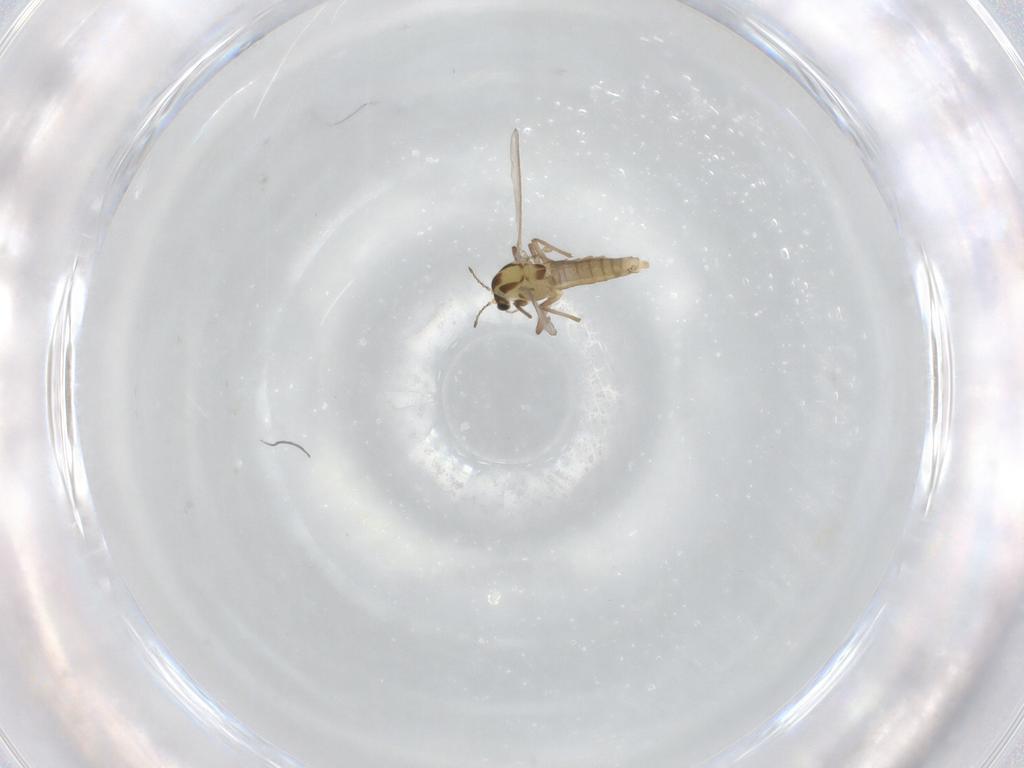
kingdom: Animalia
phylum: Arthropoda
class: Insecta
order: Diptera
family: Chironomidae
